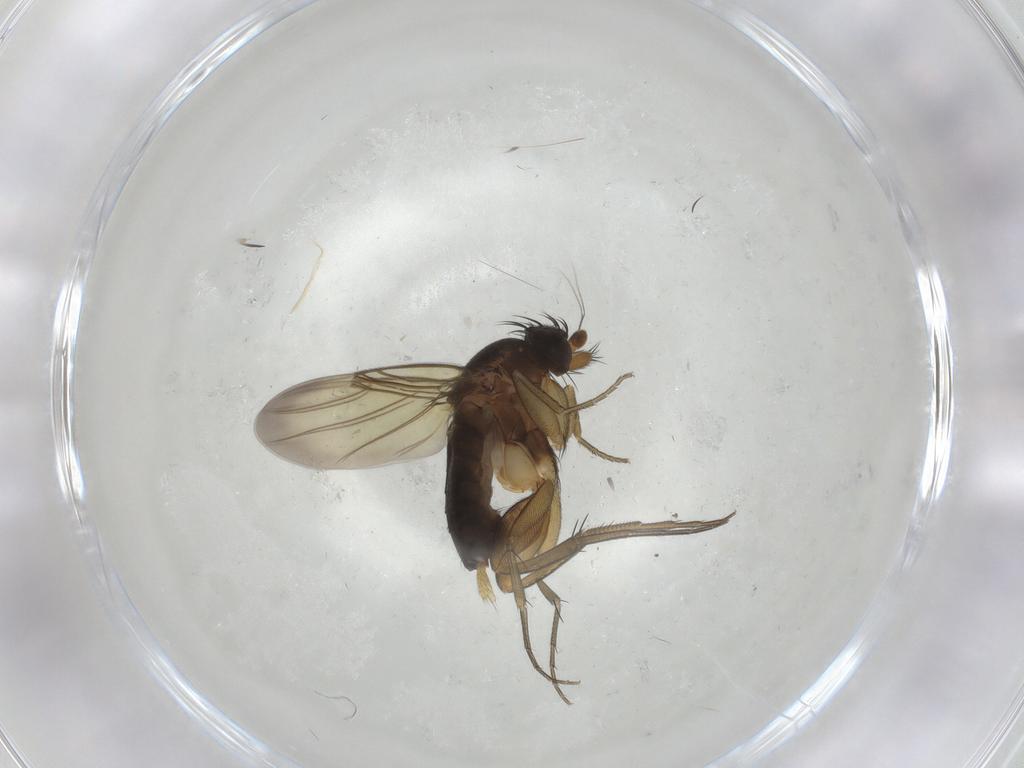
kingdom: Animalia
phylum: Arthropoda
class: Insecta
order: Diptera
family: Phoridae
